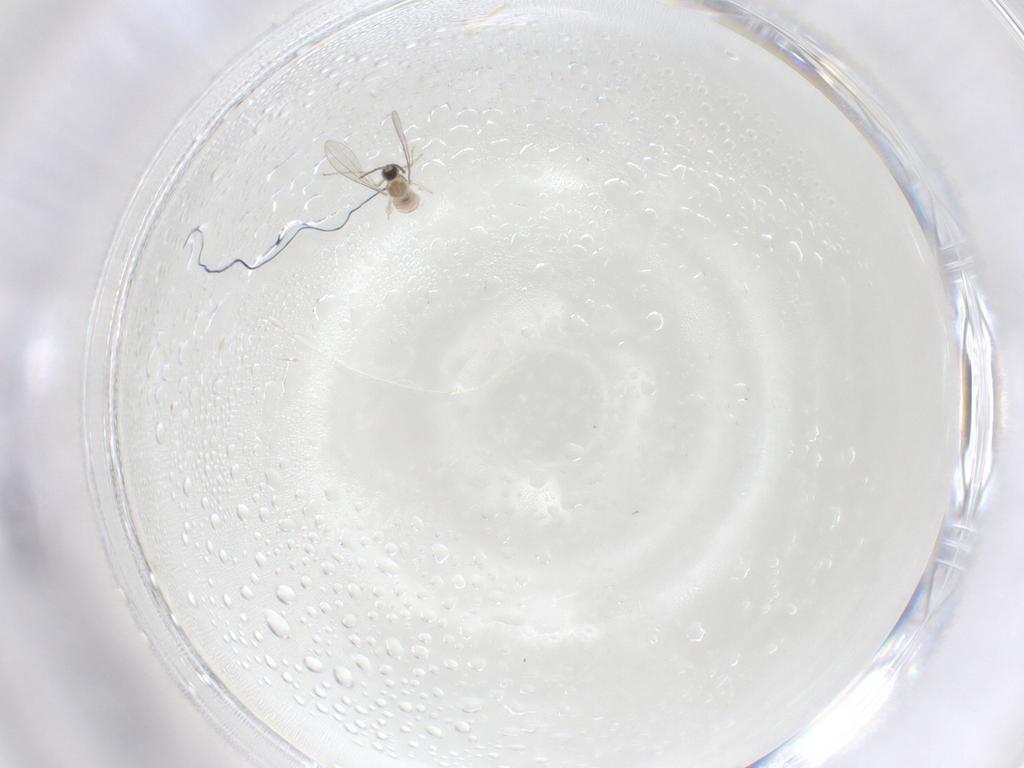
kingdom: Animalia
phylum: Arthropoda
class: Insecta
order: Diptera
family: Cecidomyiidae
